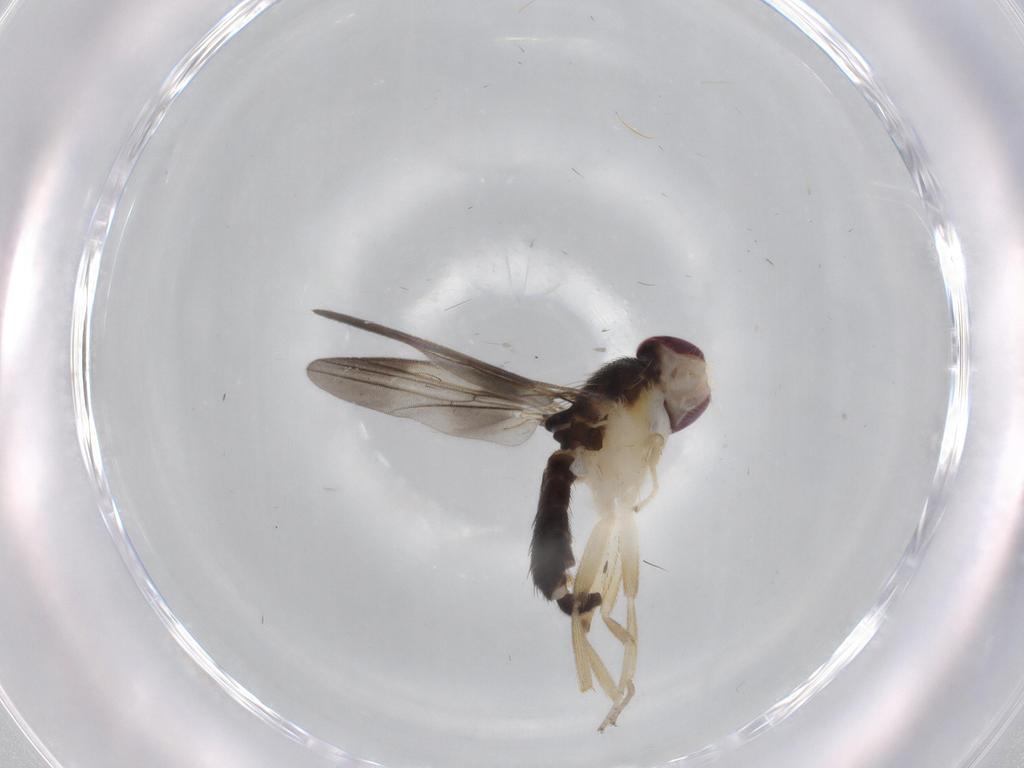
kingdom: Animalia
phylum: Arthropoda
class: Insecta
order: Diptera
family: Clusiidae
